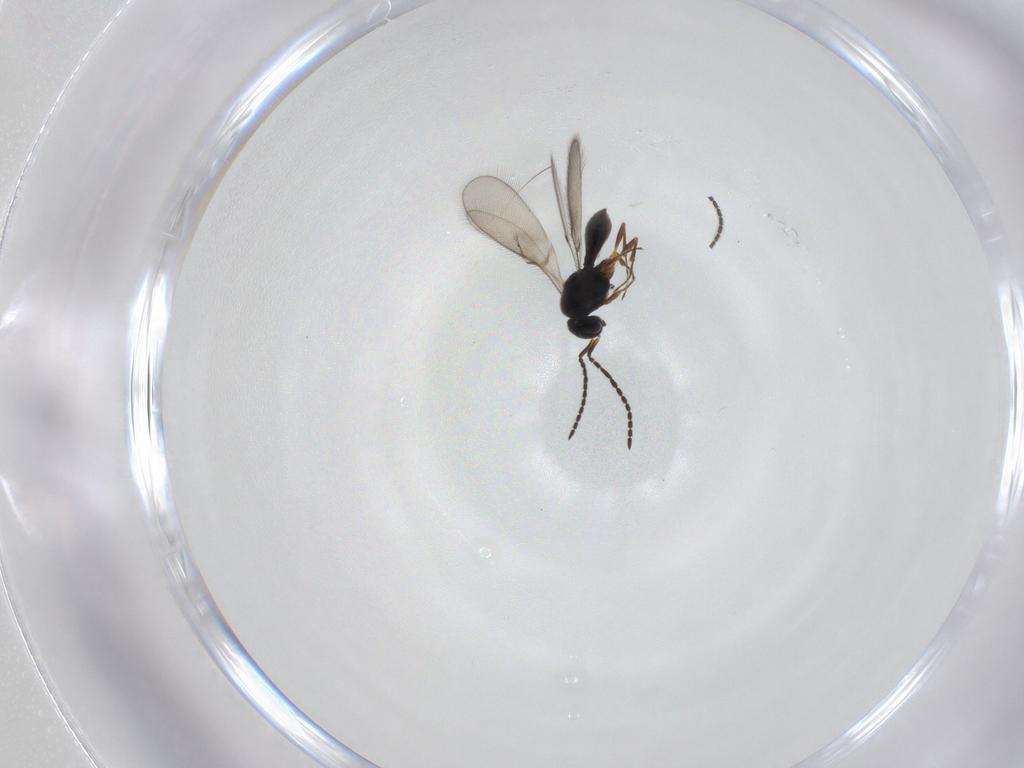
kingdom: Animalia
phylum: Arthropoda
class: Insecta
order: Hymenoptera
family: Scelionidae
